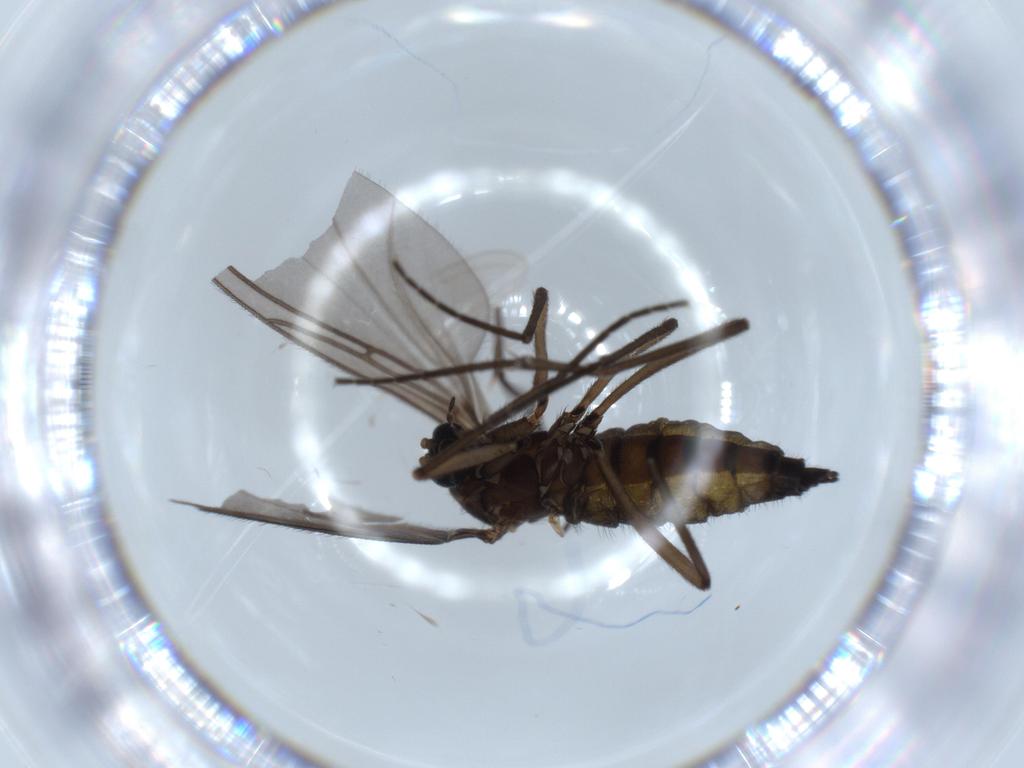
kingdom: Animalia
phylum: Arthropoda
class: Insecta
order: Diptera
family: Sciaridae
